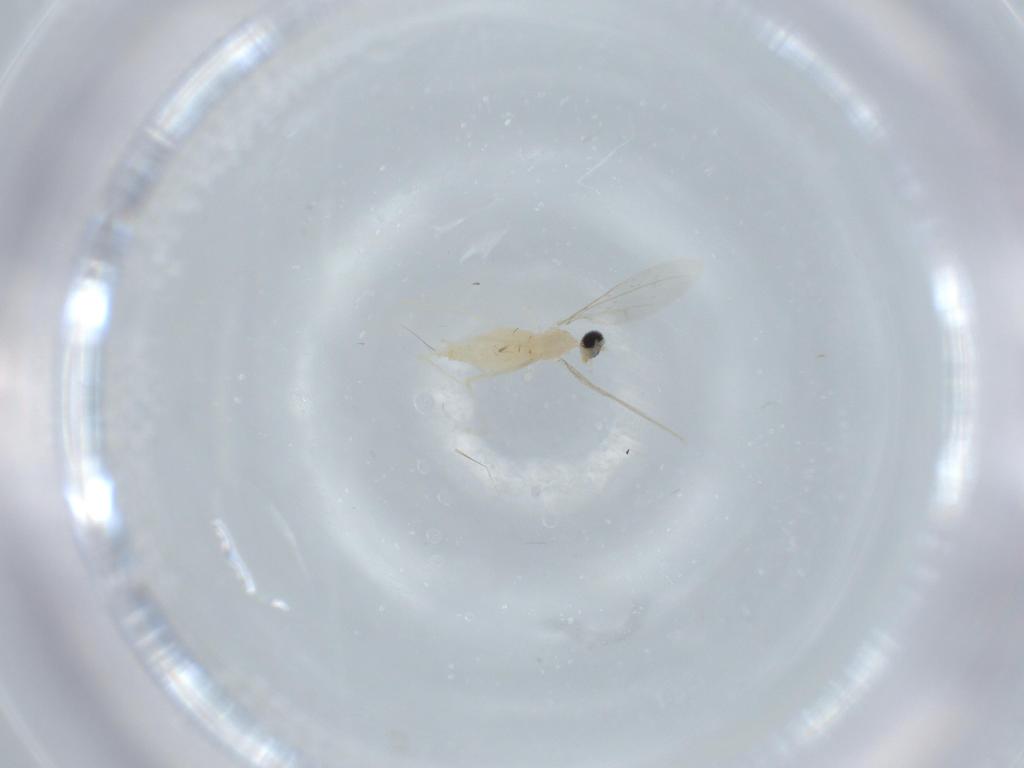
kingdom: Animalia
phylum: Arthropoda
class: Insecta
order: Diptera
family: Cecidomyiidae
